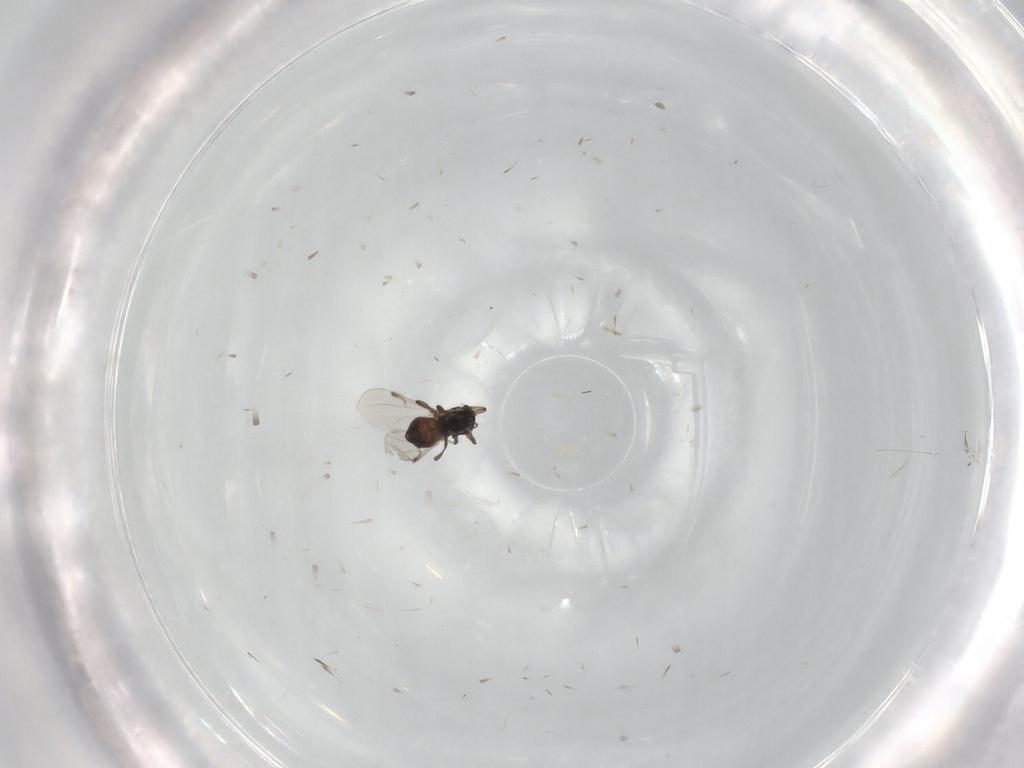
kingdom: Animalia
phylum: Arthropoda
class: Insecta
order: Diptera
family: Ceratopogonidae
